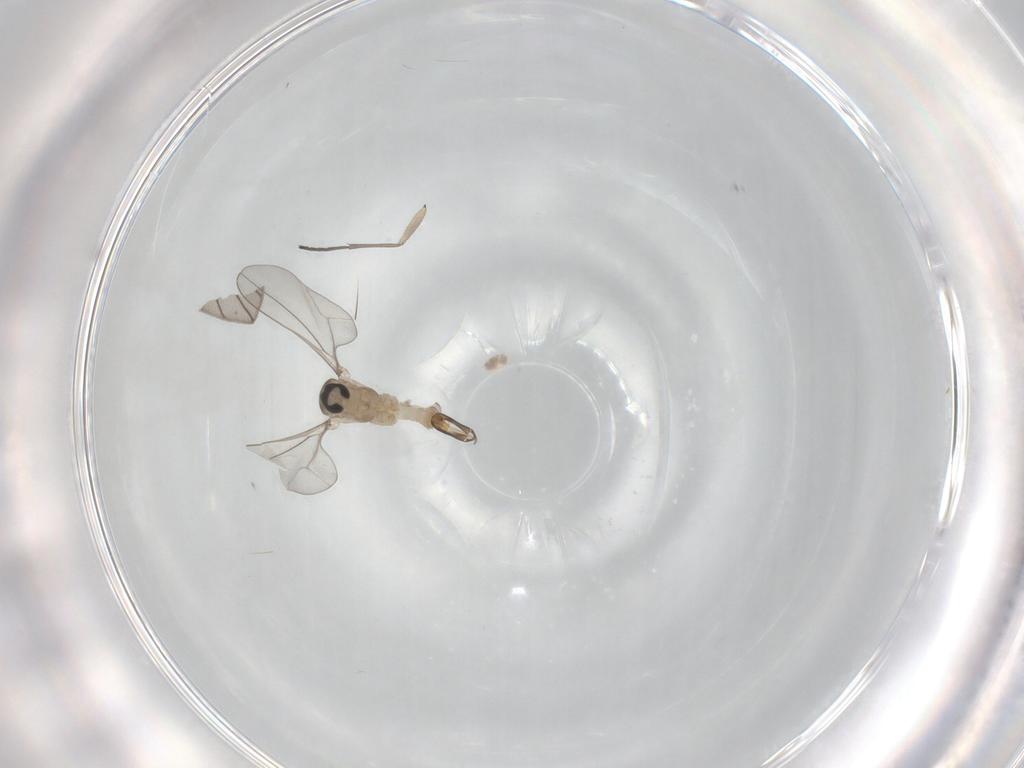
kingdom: Animalia
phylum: Arthropoda
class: Insecta
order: Diptera
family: Cecidomyiidae
